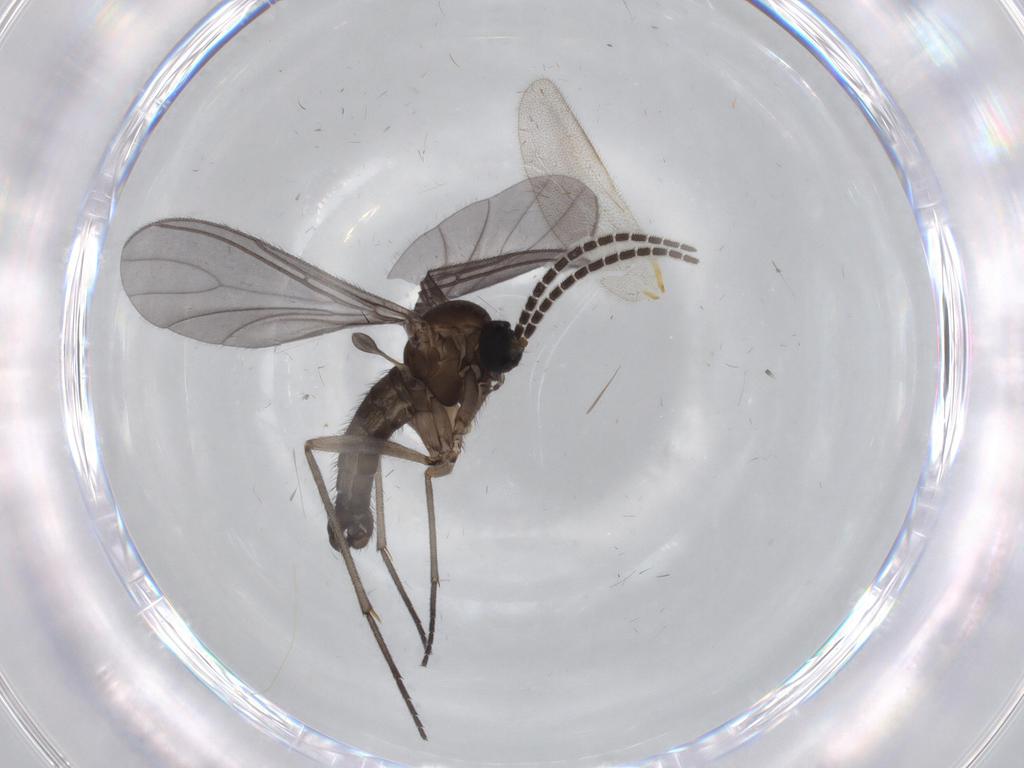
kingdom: Animalia
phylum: Arthropoda
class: Insecta
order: Diptera
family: Sciaridae
